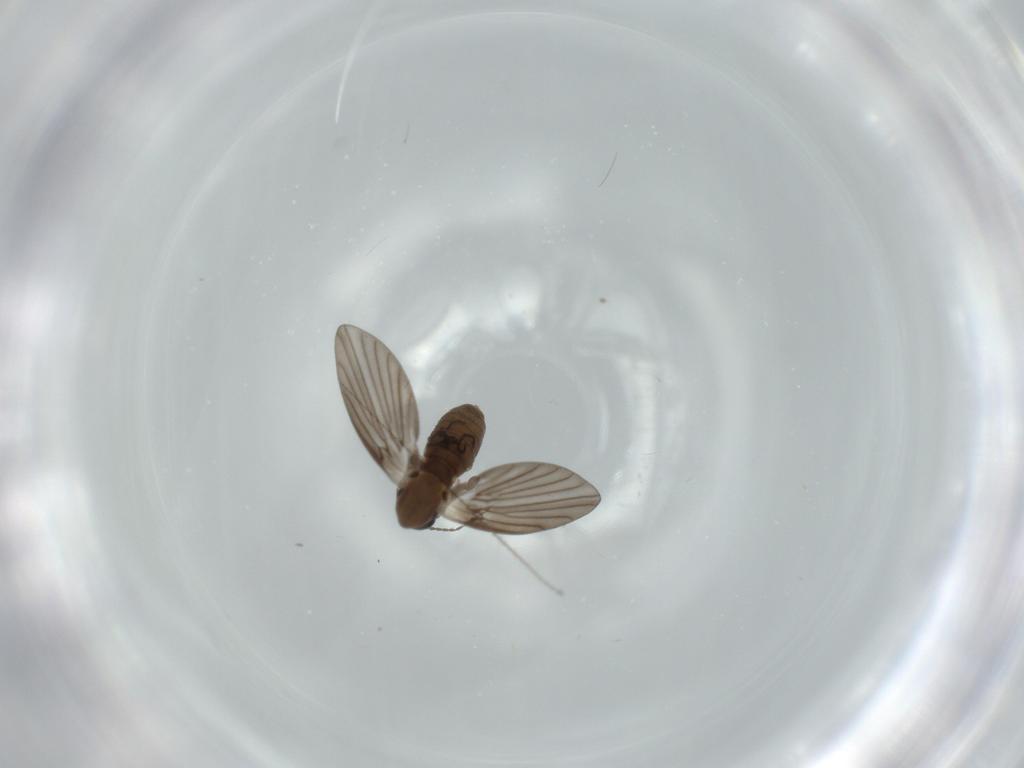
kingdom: Animalia
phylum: Arthropoda
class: Insecta
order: Diptera
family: Psychodidae
